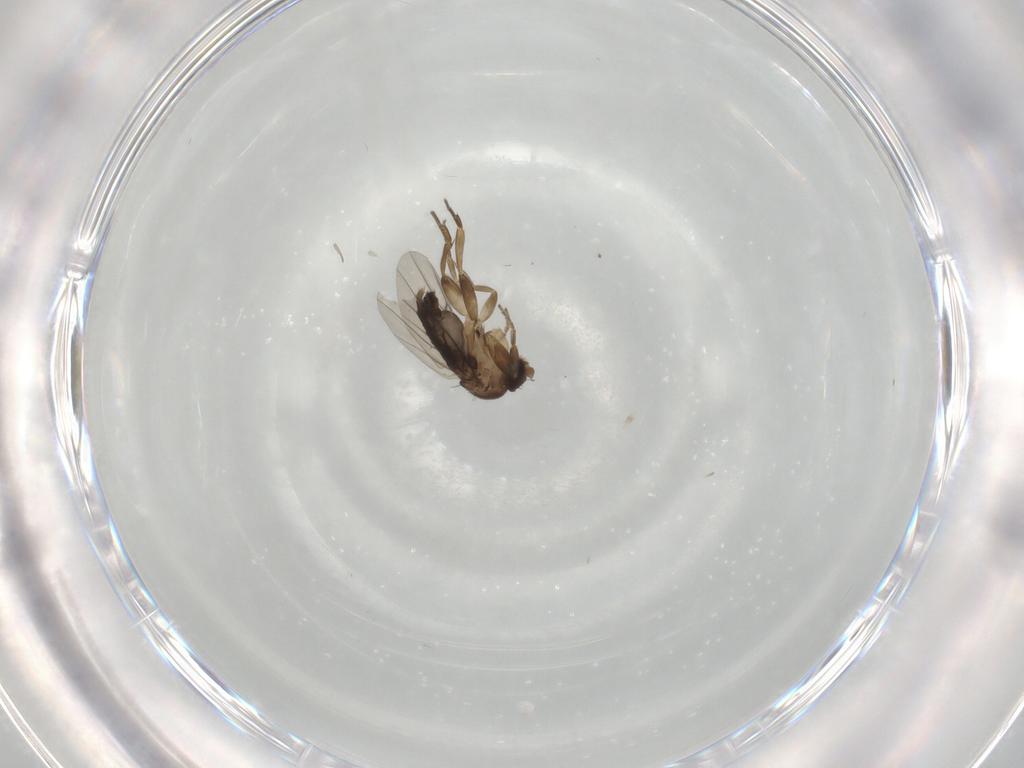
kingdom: Animalia
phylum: Arthropoda
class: Insecta
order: Diptera
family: Phoridae
